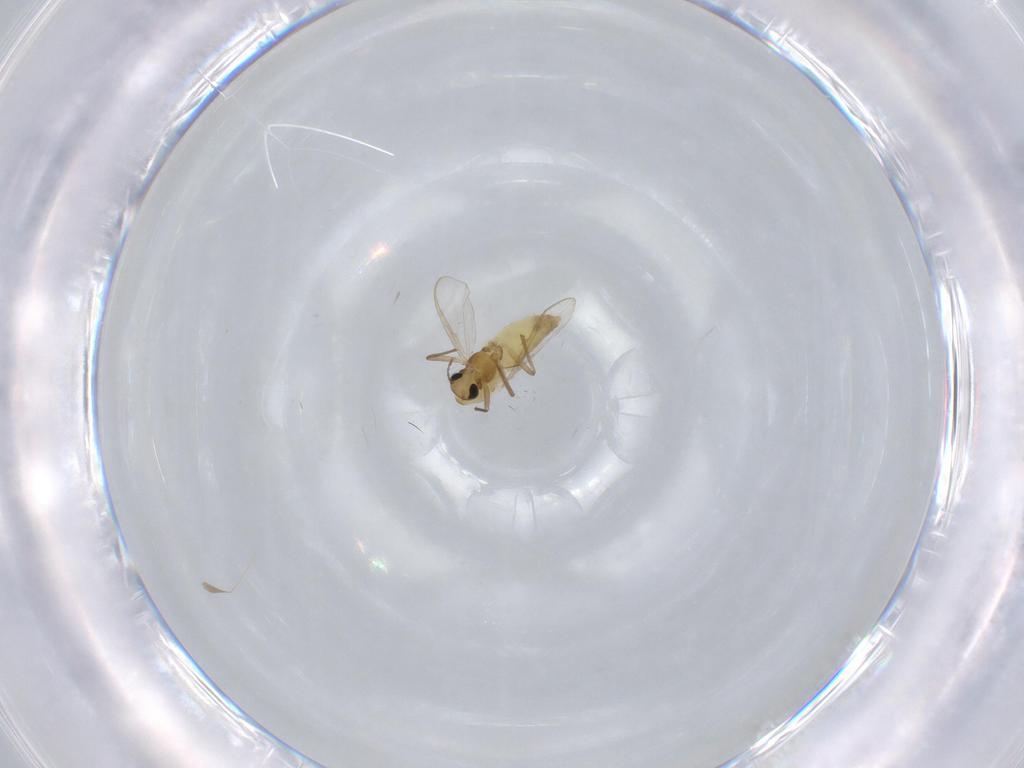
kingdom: Animalia
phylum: Arthropoda
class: Insecta
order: Diptera
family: Chironomidae
